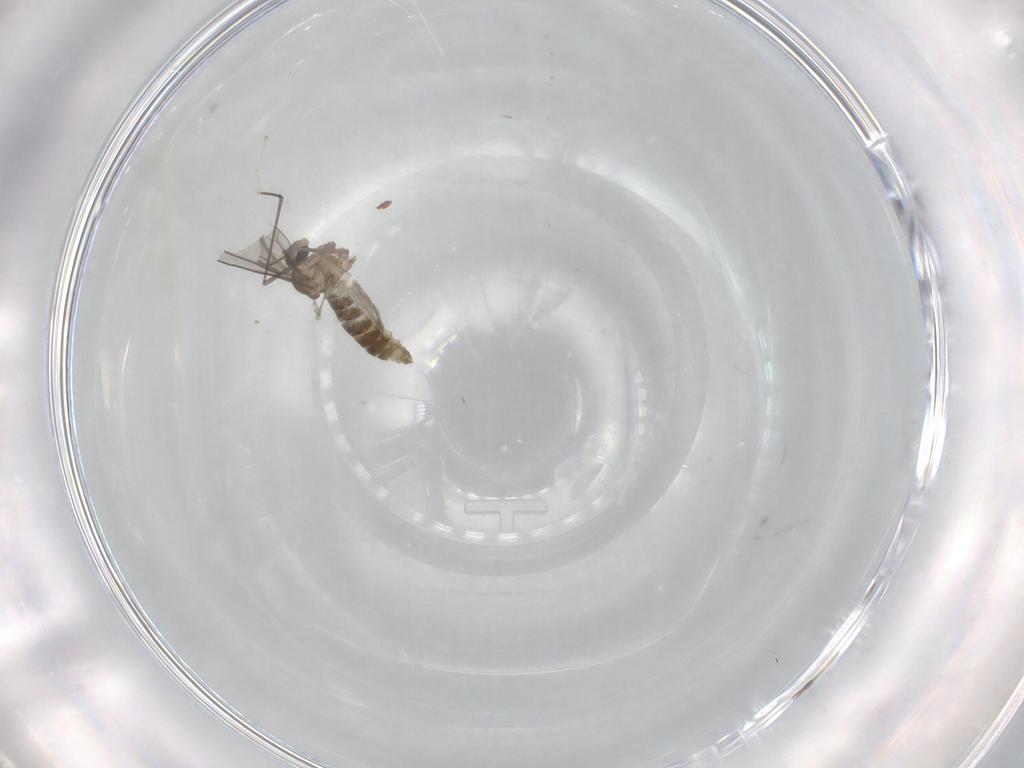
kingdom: Animalia
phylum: Arthropoda
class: Insecta
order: Diptera
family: Cecidomyiidae
